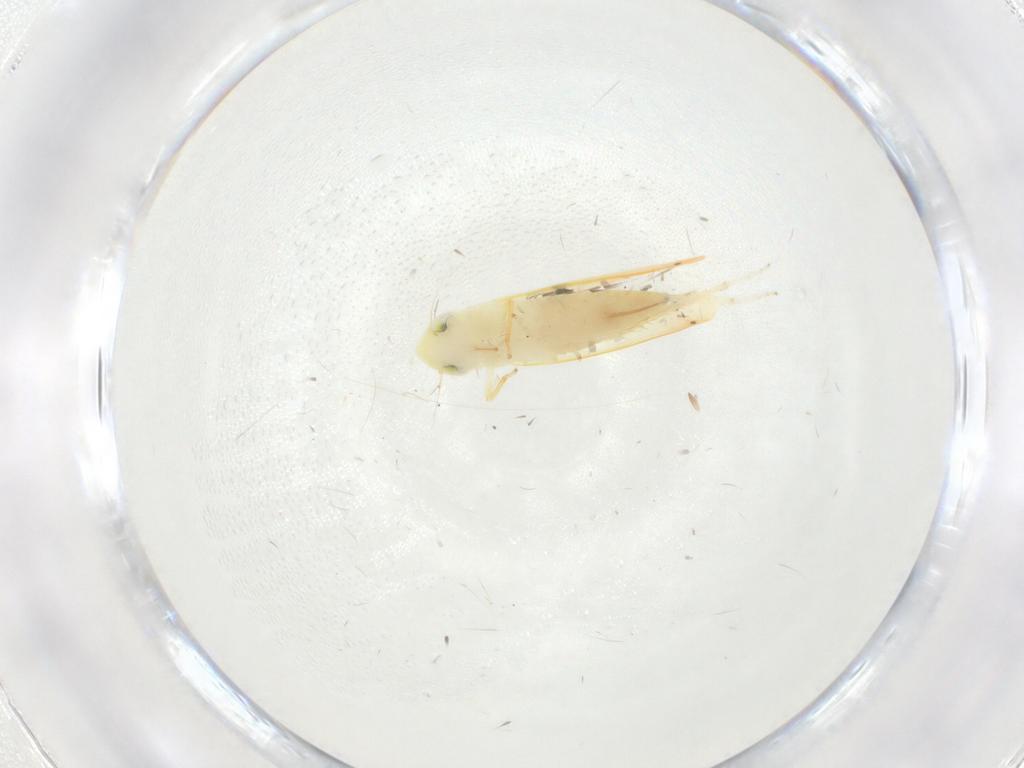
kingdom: Animalia
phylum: Arthropoda
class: Insecta
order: Hemiptera
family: Cicadellidae
